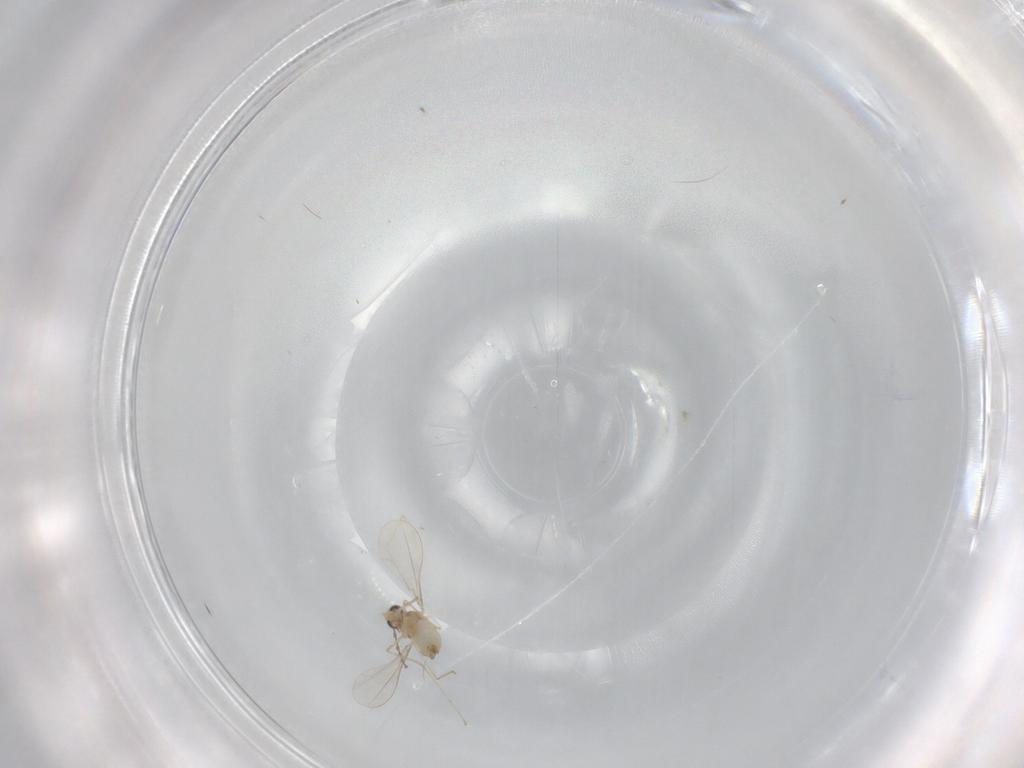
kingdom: Animalia
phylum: Arthropoda
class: Insecta
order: Diptera
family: Cecidomyiidae
